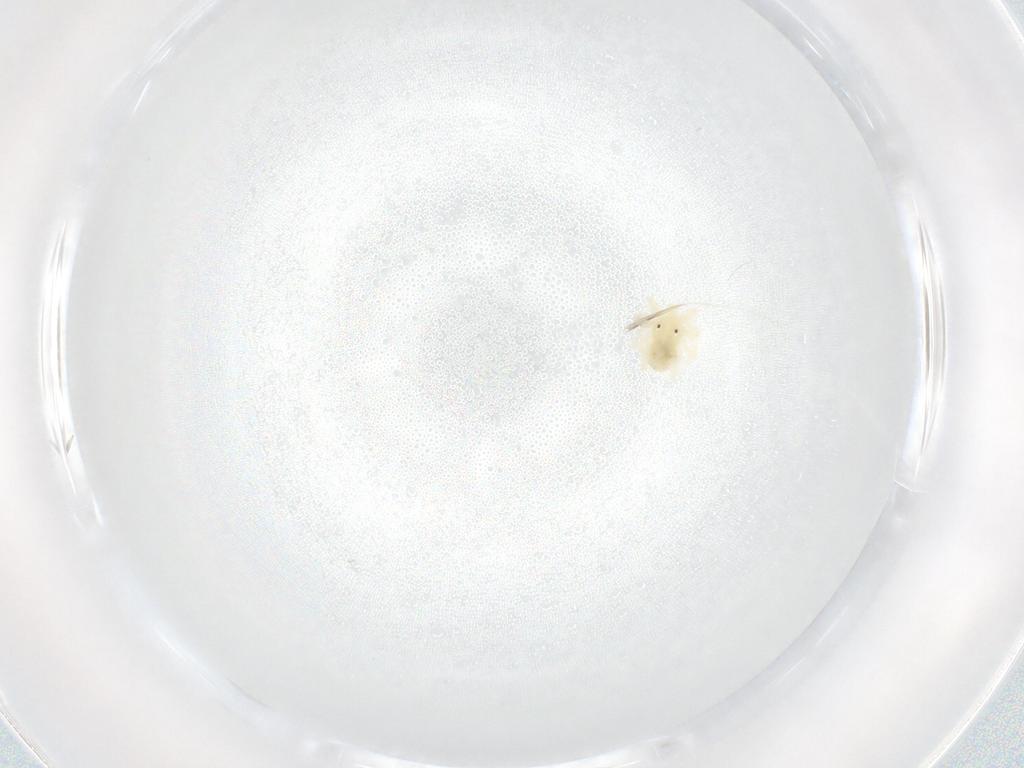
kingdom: Animalia
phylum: Arthropoda
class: Arachnida
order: Trombidiformes
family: Anystidae
